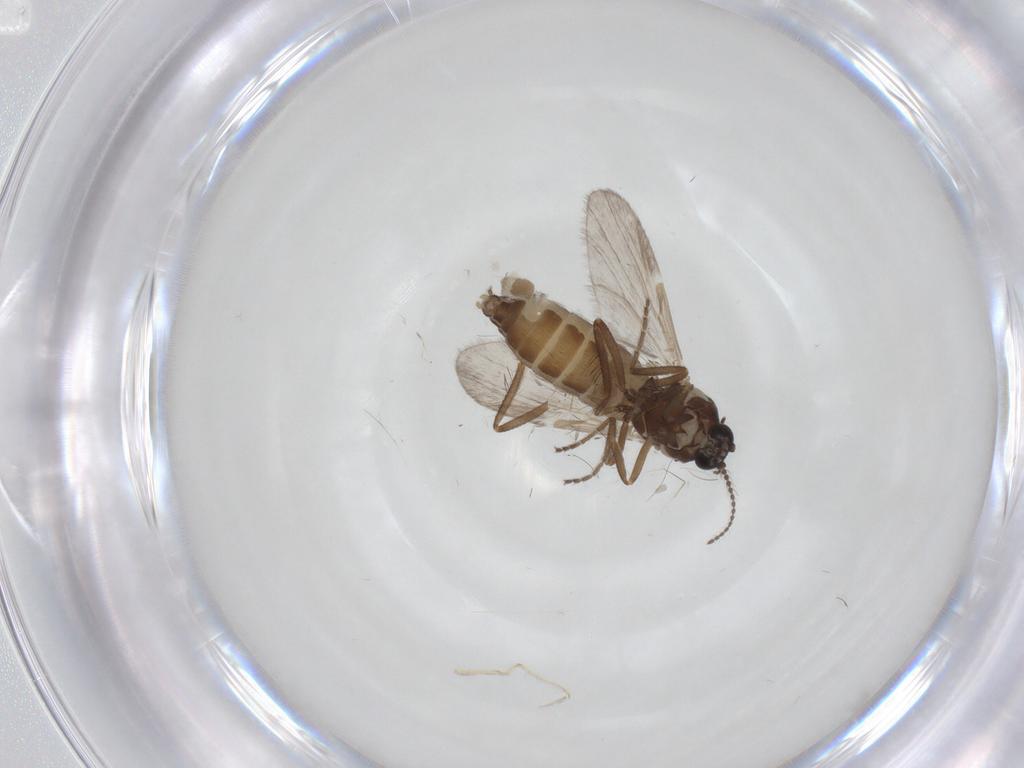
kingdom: Animalia
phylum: Arthropoda
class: Insecta
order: Diptera
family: Ceratopogonidae
